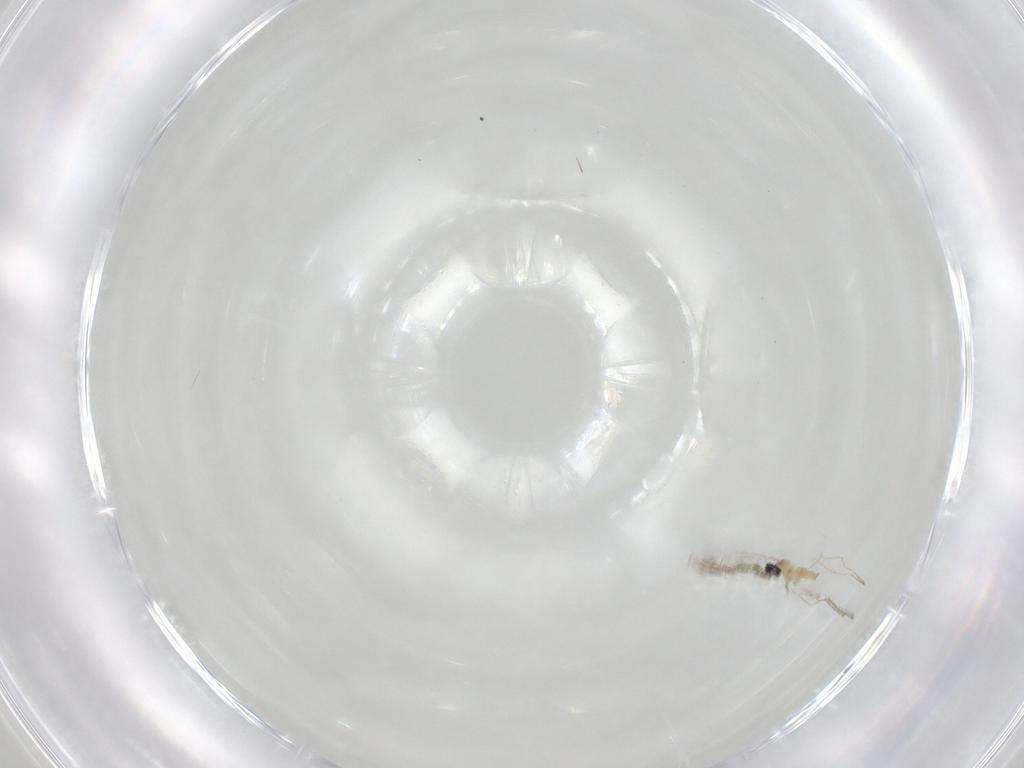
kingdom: Animalia
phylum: Arthropoda
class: Insecta
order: Diptera
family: Cecidomyiidae
